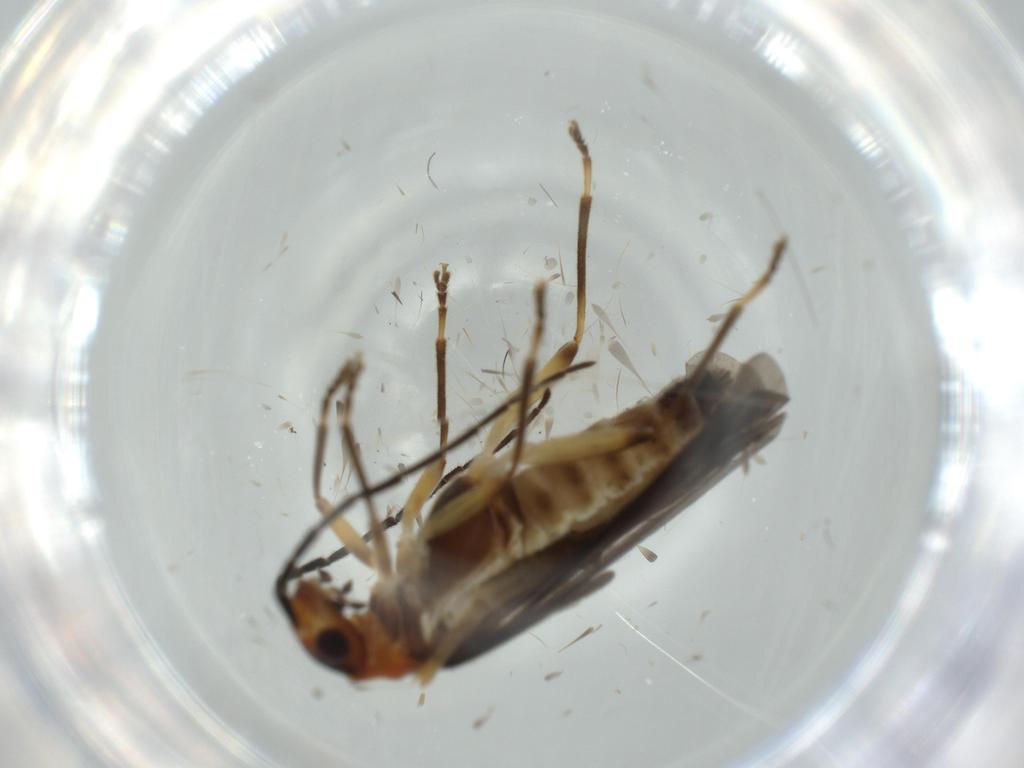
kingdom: Animalia
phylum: Arthropoda
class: Insecta
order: Coleoptera
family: Cantharidae
